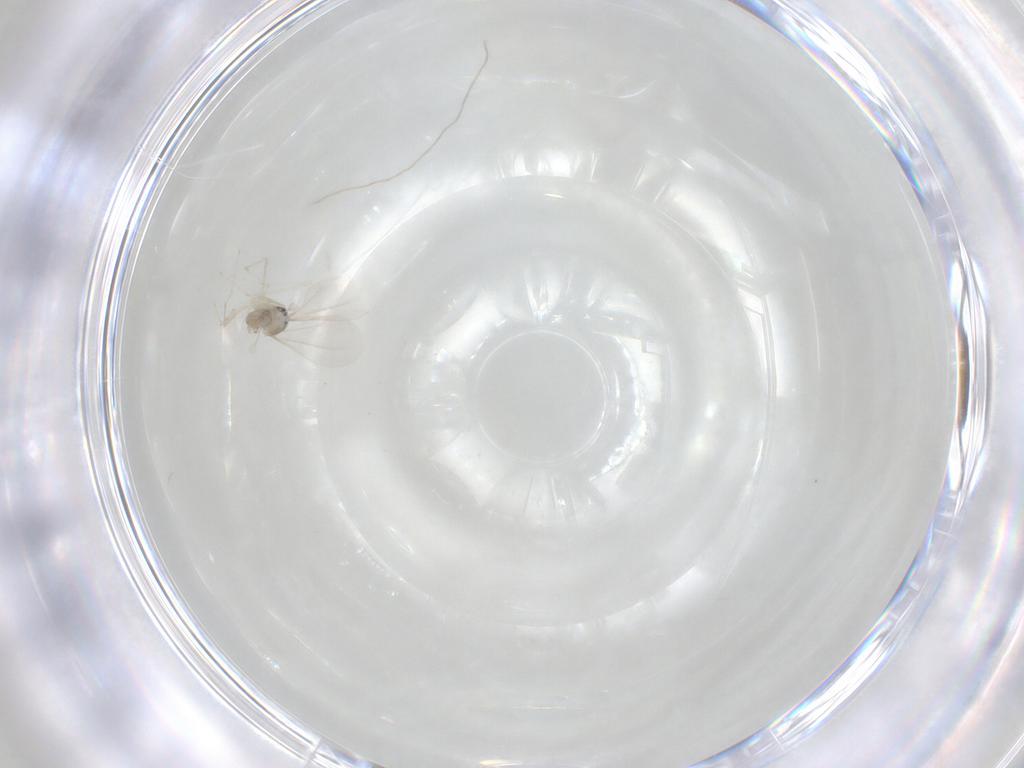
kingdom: Animalia
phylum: Arthropoda
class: Insecta
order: Diptera
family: Cecidomyiidae
